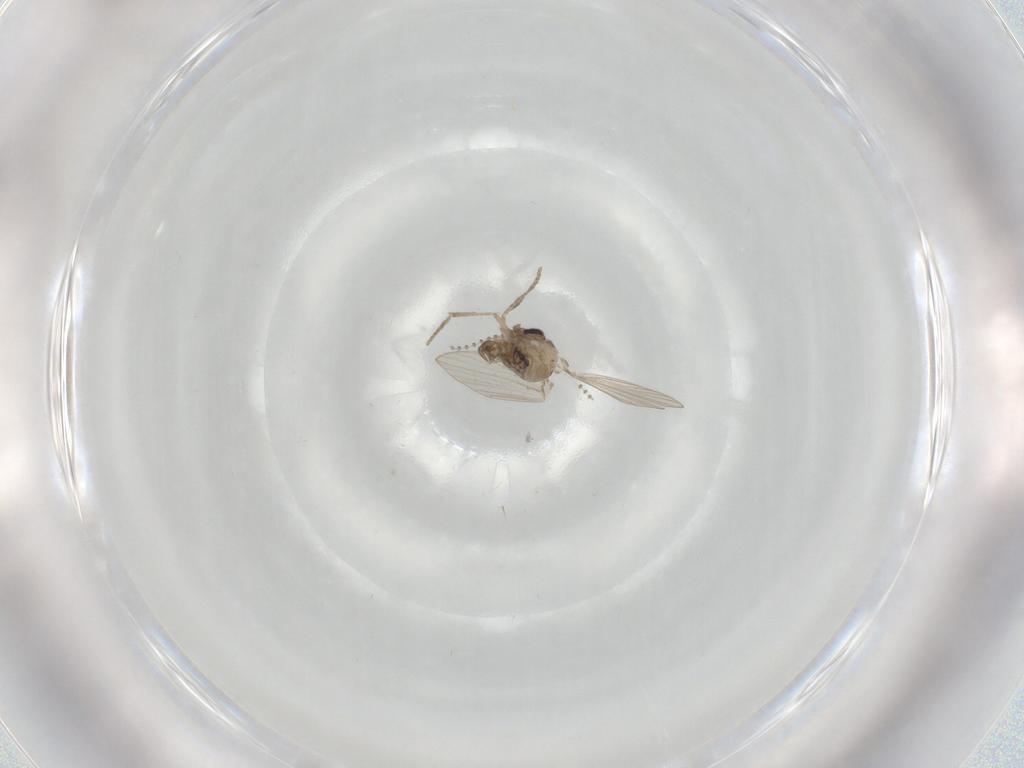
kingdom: Animalia
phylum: Arthropoda
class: Insecta
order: Diptera
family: Psychodidae
